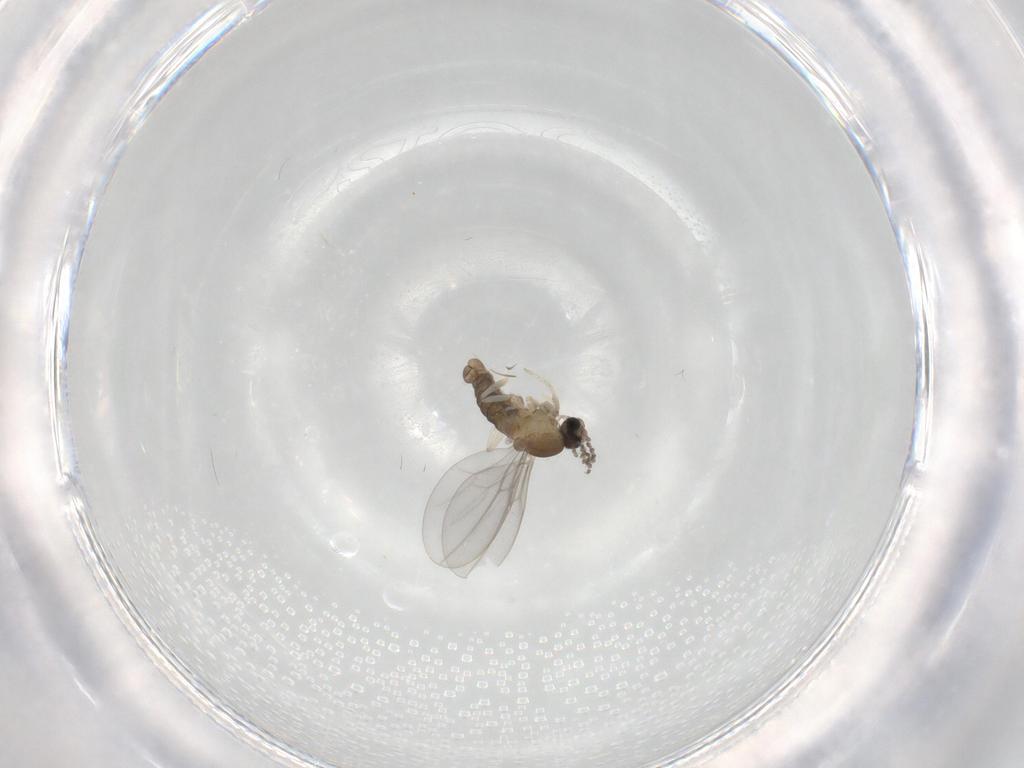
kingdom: Animalia
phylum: Arthropoda
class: Insecta
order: Diptera
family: Cecidomyiidae
